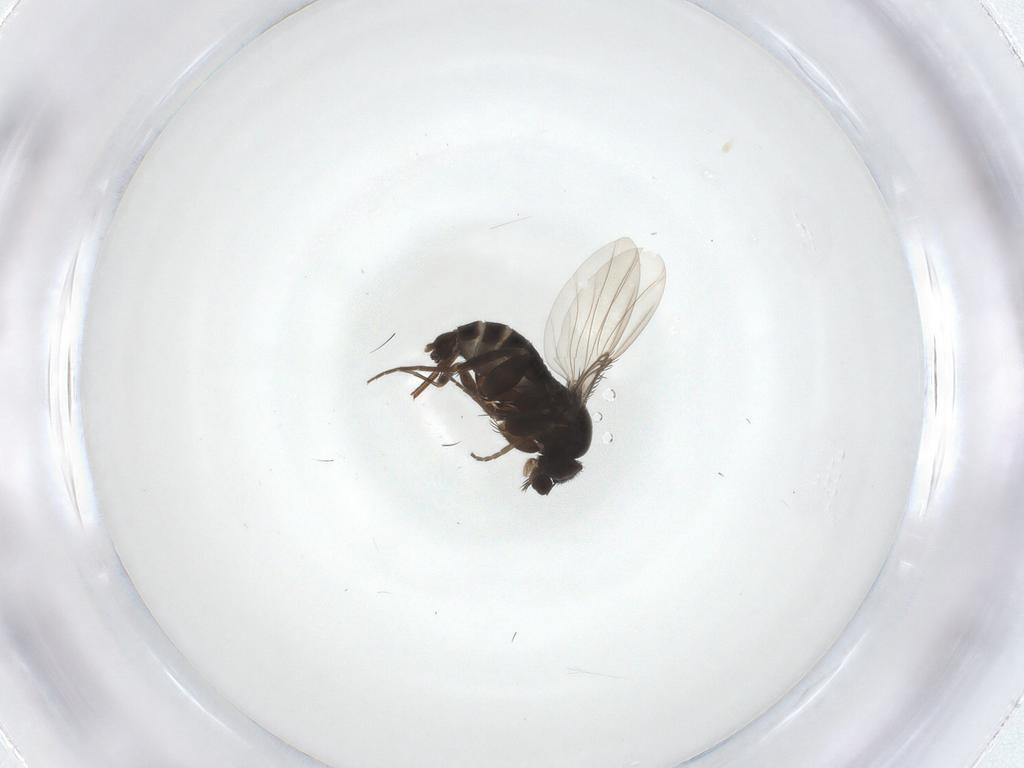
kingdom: Animalia
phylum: Arthropoda
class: Insecta
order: Diptera
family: Phoridae
